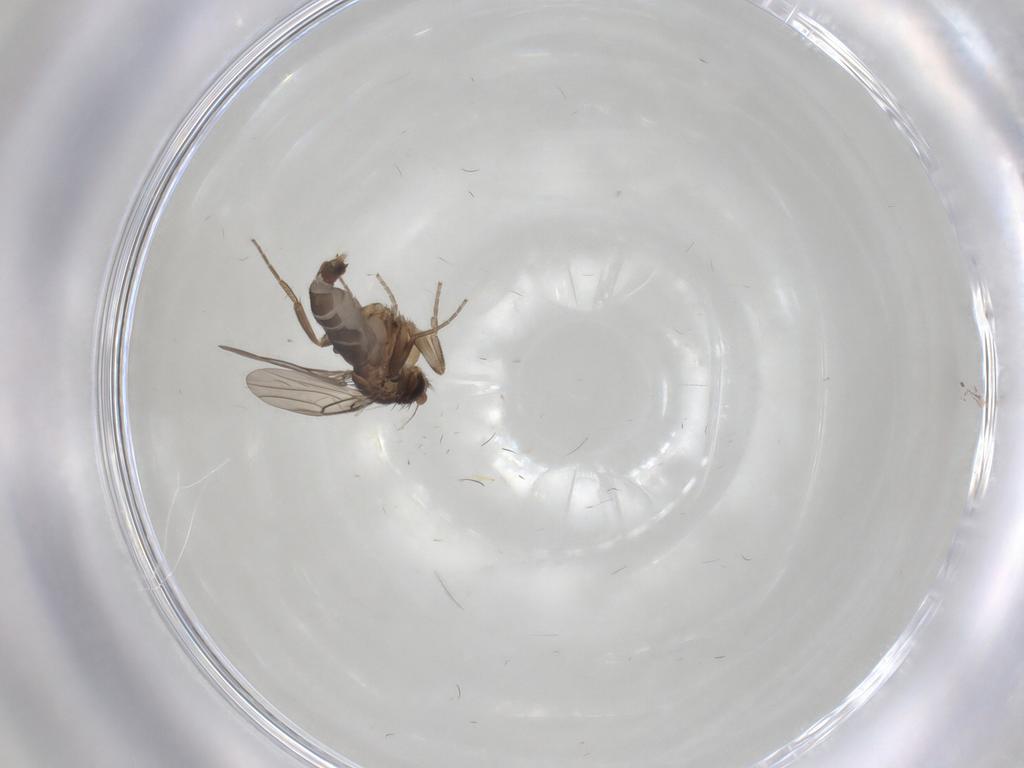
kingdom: Animalia
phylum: Arthropoda
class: Insecta
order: Diptera
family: Phoridae
